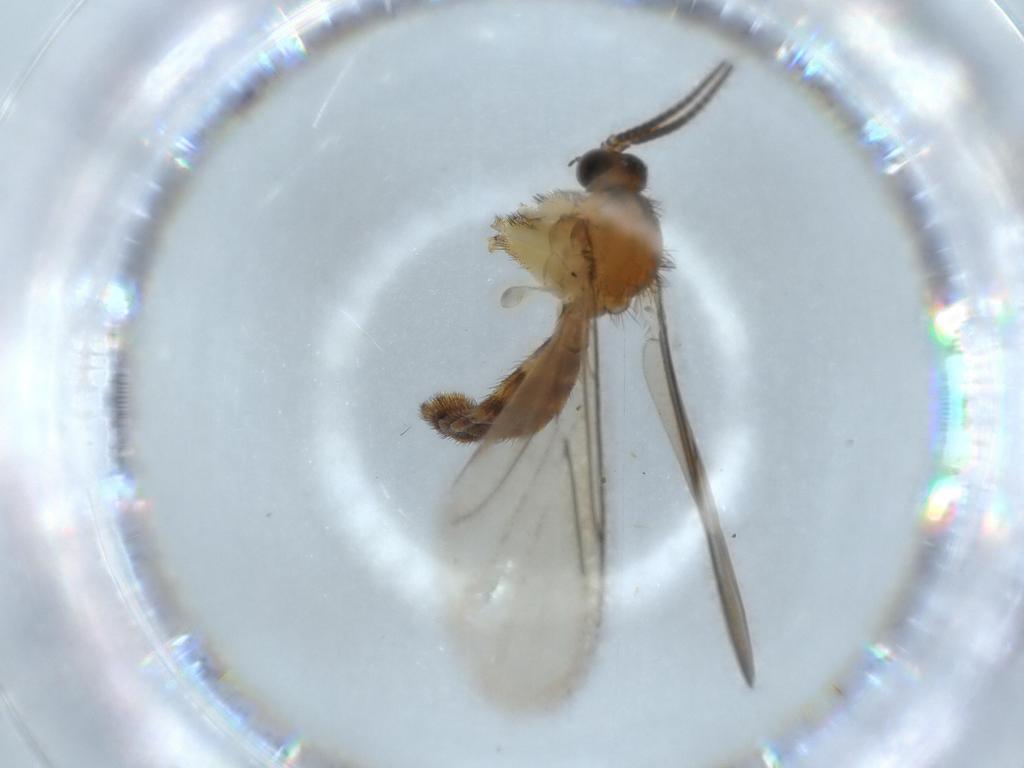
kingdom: Animalia
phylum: Arthropoda
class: Insecta
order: Diptera
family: Sciaridae
